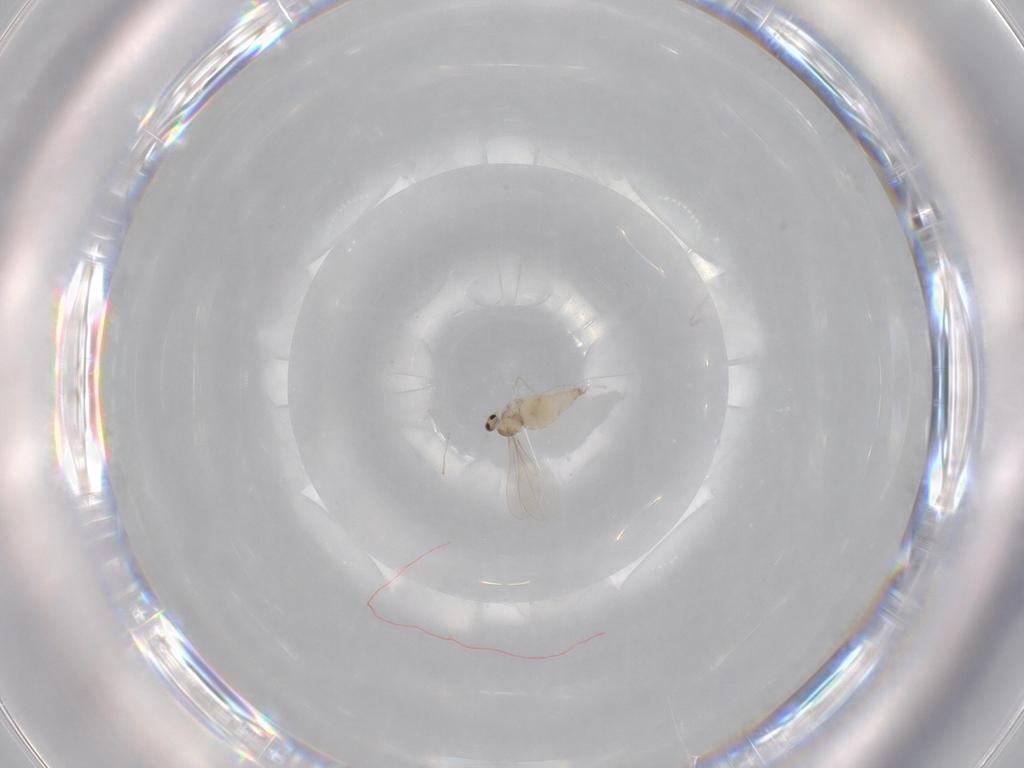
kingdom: Animalia
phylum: Arthropoda
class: Insecta
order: Diptera
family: Cecidomyiidae
